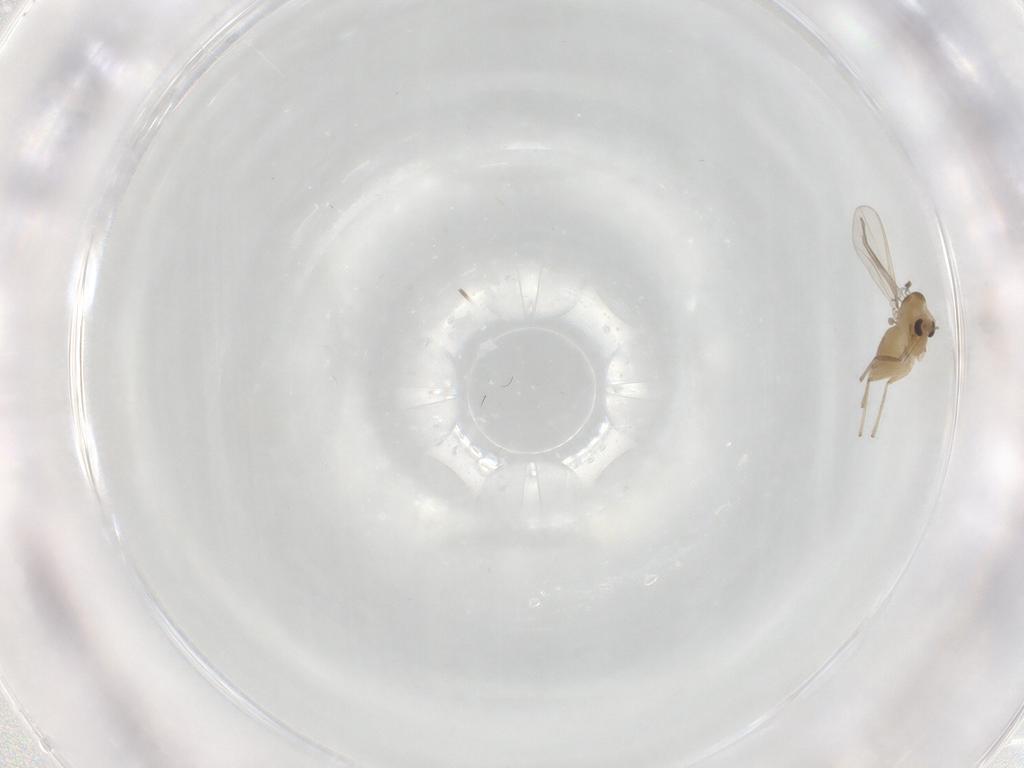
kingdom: Animalia
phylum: Arthropoda
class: Insecta
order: Diptera
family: Chironomidae
